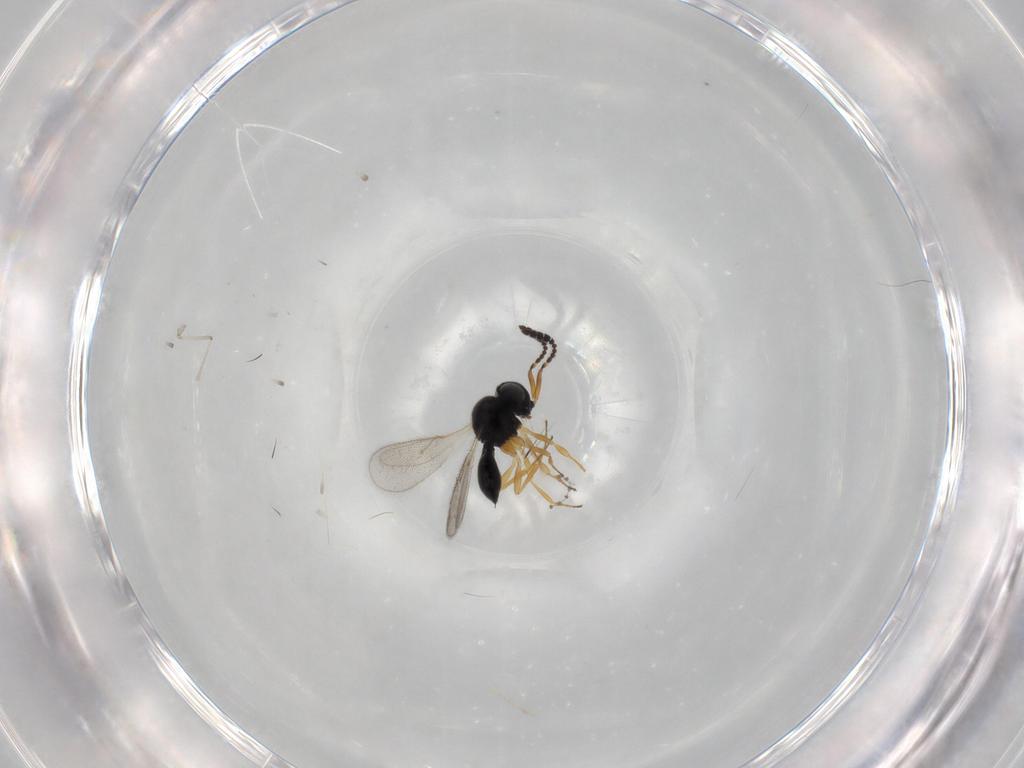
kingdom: Animalia
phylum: Arthropoda
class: Insecta
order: Hymenoptera
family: Scelionidae
